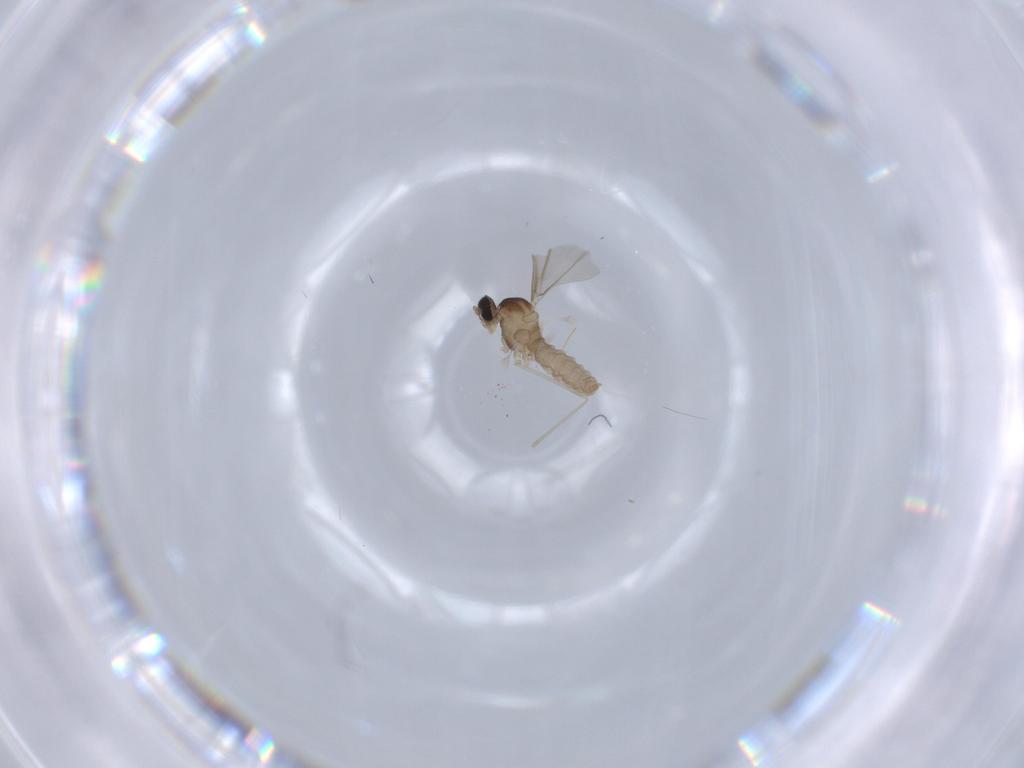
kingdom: Animalia
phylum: Arthropoda
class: Insecta
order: Diptera
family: Cecidomyiidae
